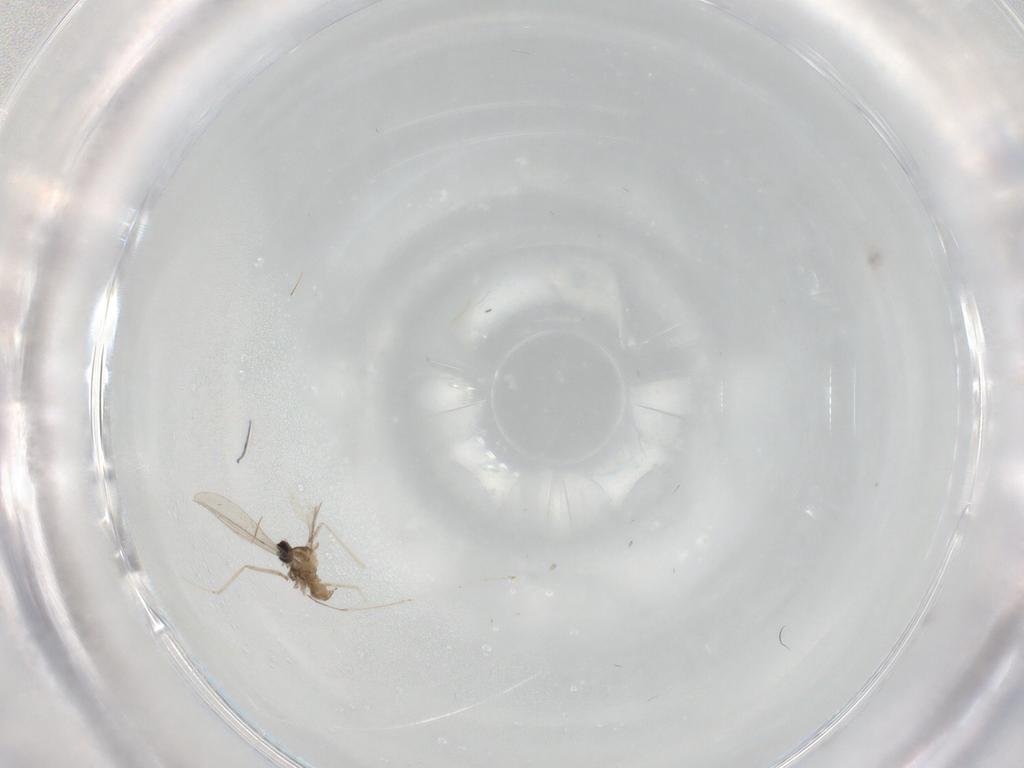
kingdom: Animalia
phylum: Arthropoda
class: Insecta
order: Diptera
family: Cecidomyiidae
